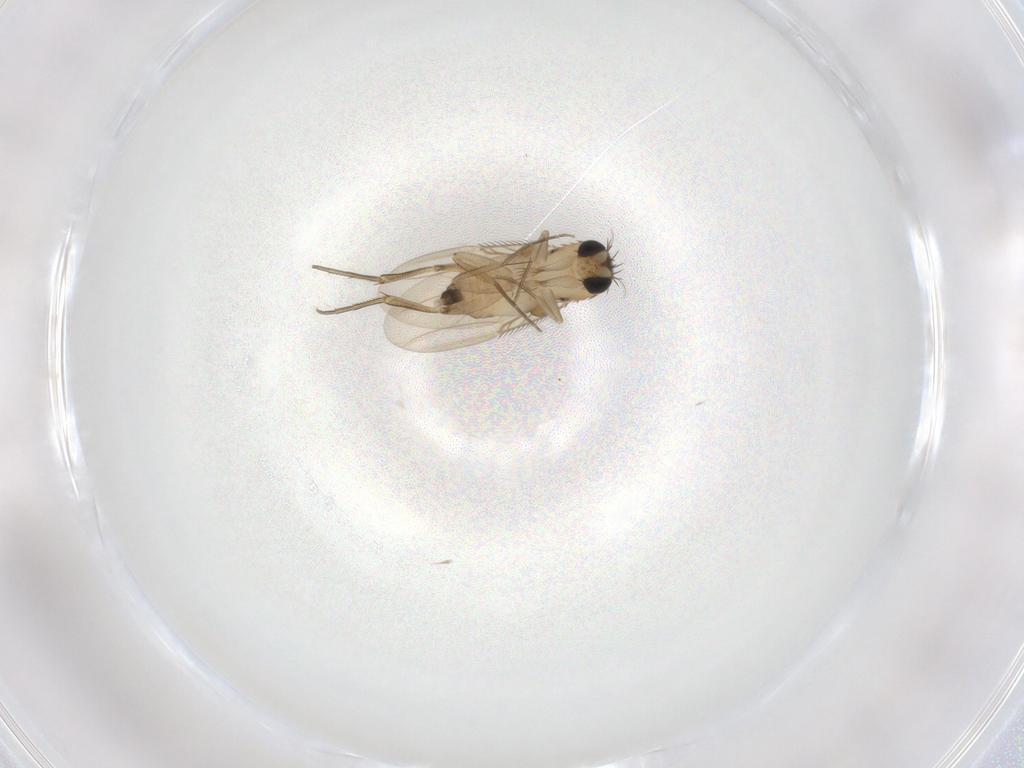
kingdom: Animalia
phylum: Arthropoda
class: Insecta
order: Diptera
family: Phoridae
